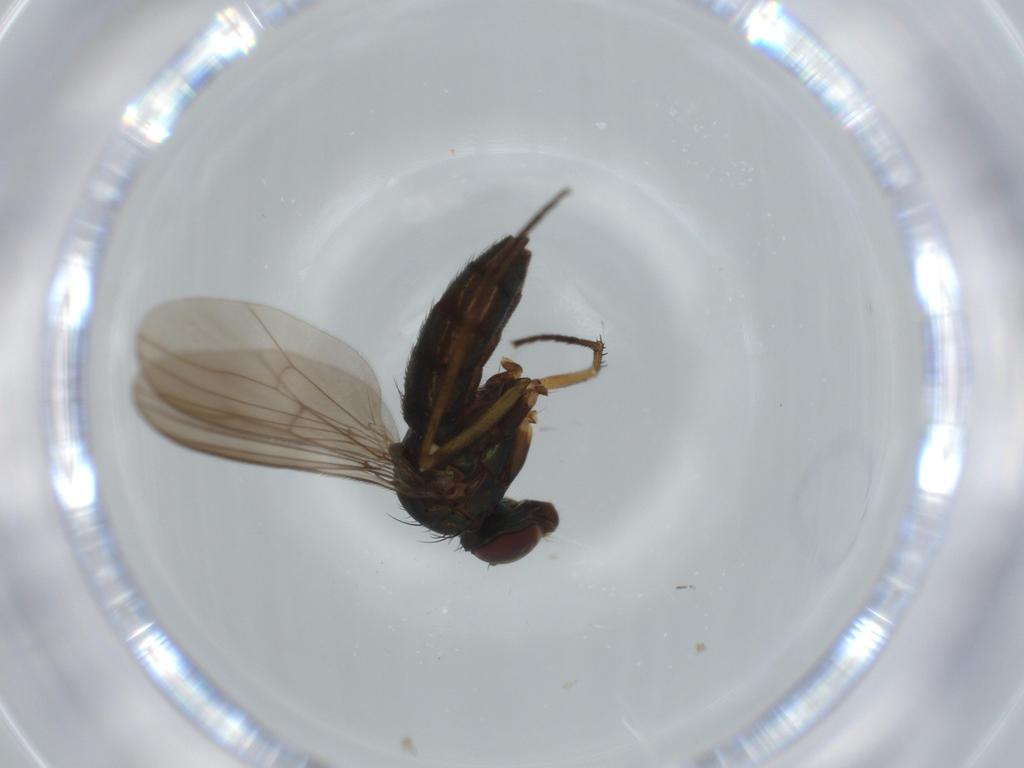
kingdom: Animalia
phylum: Arthropoda
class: Insecta
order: Diptera
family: Dolichopodidae
